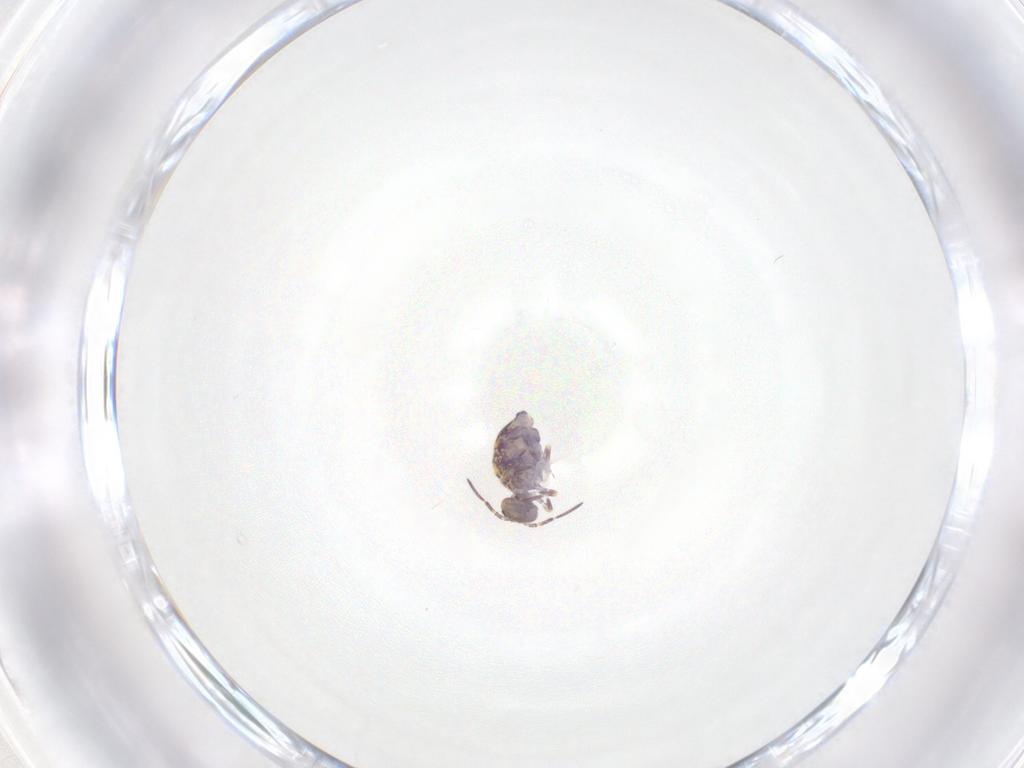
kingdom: Animalia
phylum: Arthropoda
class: Collembola
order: Symphypleona
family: Sminthuridae
